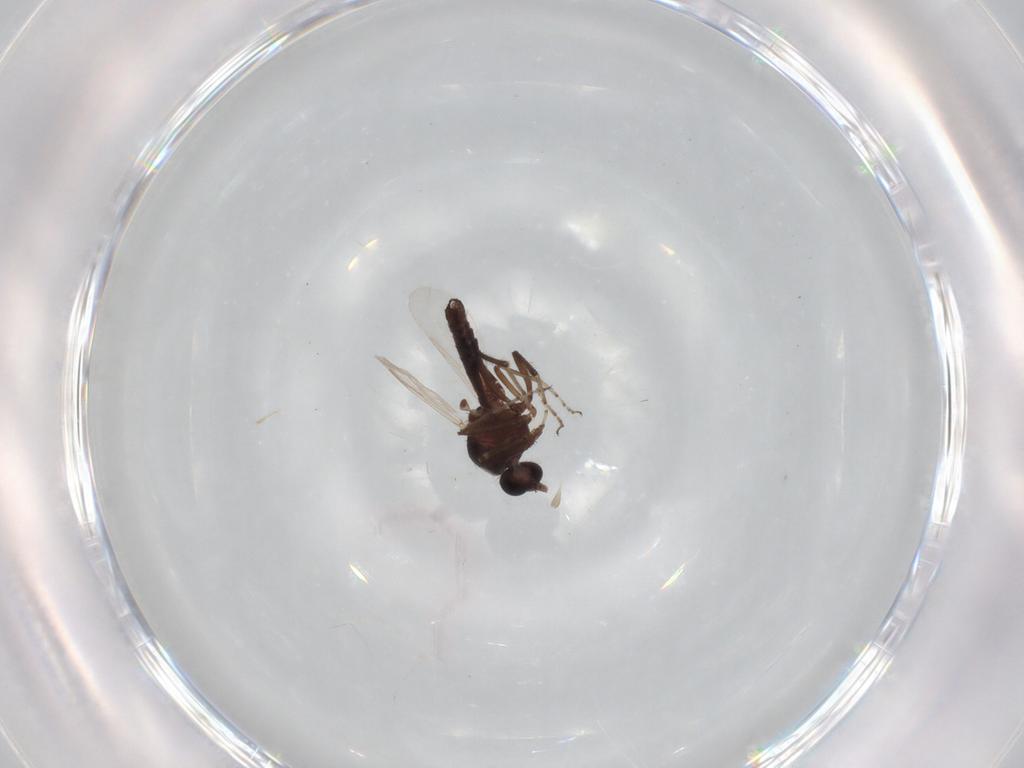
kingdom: Animalia
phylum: Arthropoda
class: Insecta
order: Diptera
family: Ceratopogonidae
